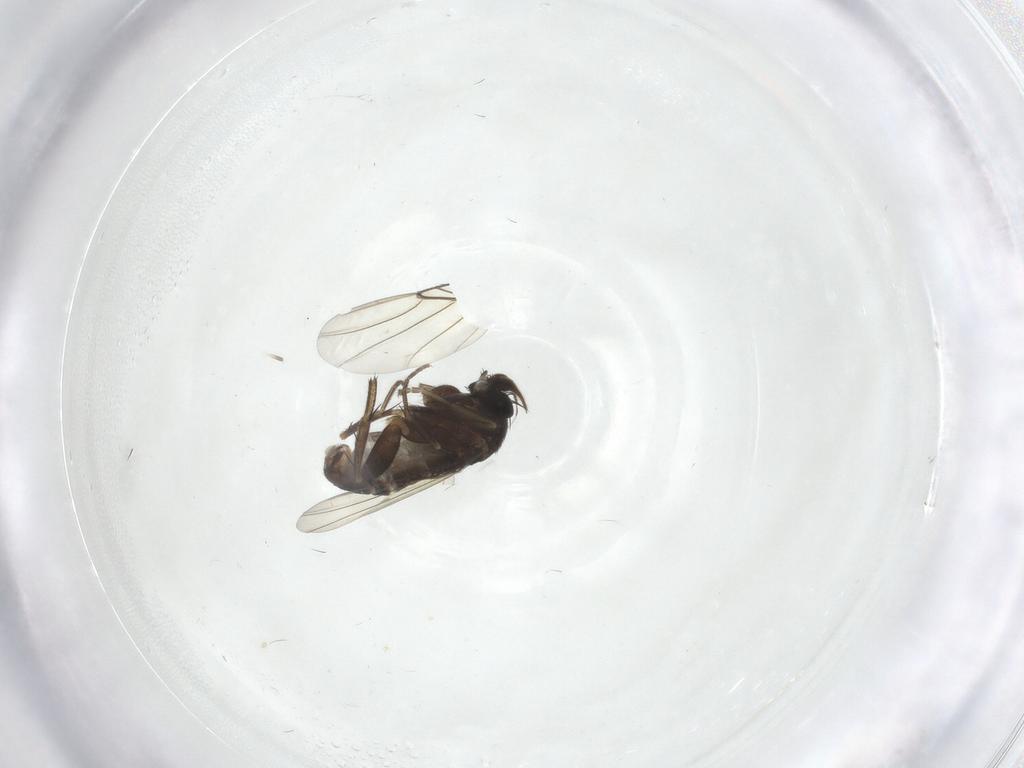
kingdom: Animalia
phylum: Arthropoda
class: Insecta
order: Diptera
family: Phoridae
